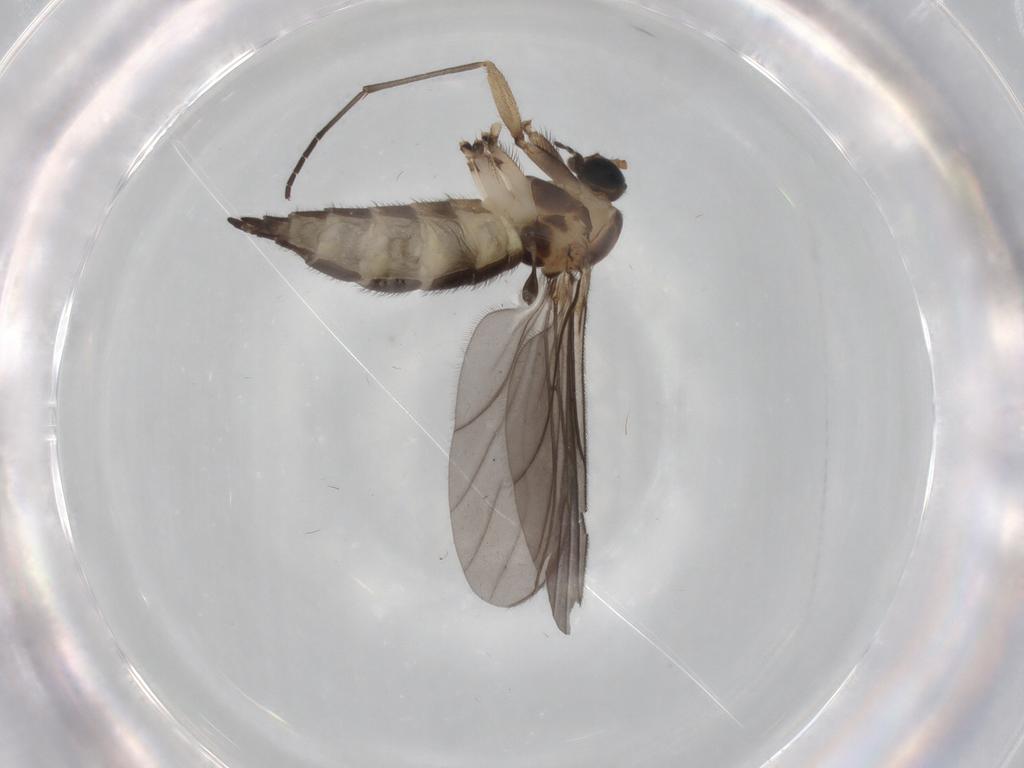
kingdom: Animalia
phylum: Arthropoda
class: Insecta
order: Diptera
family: Sciaridae
